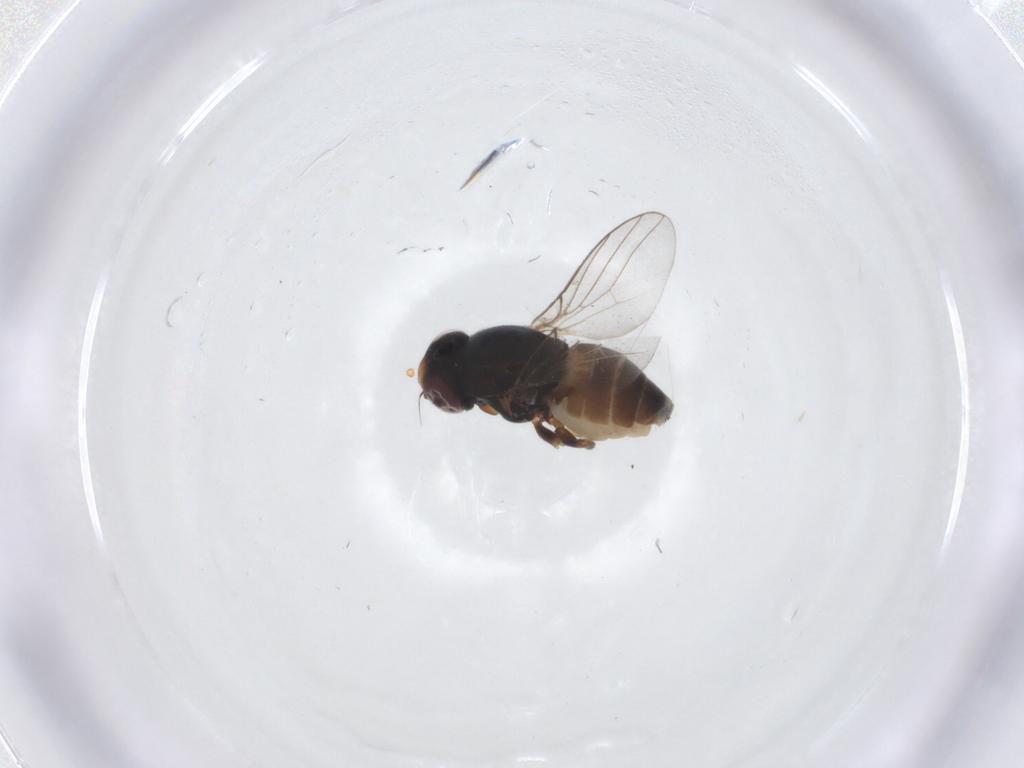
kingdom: Animalia
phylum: Arthropoda
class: Insecta
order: Diptera
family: Chloropidae
